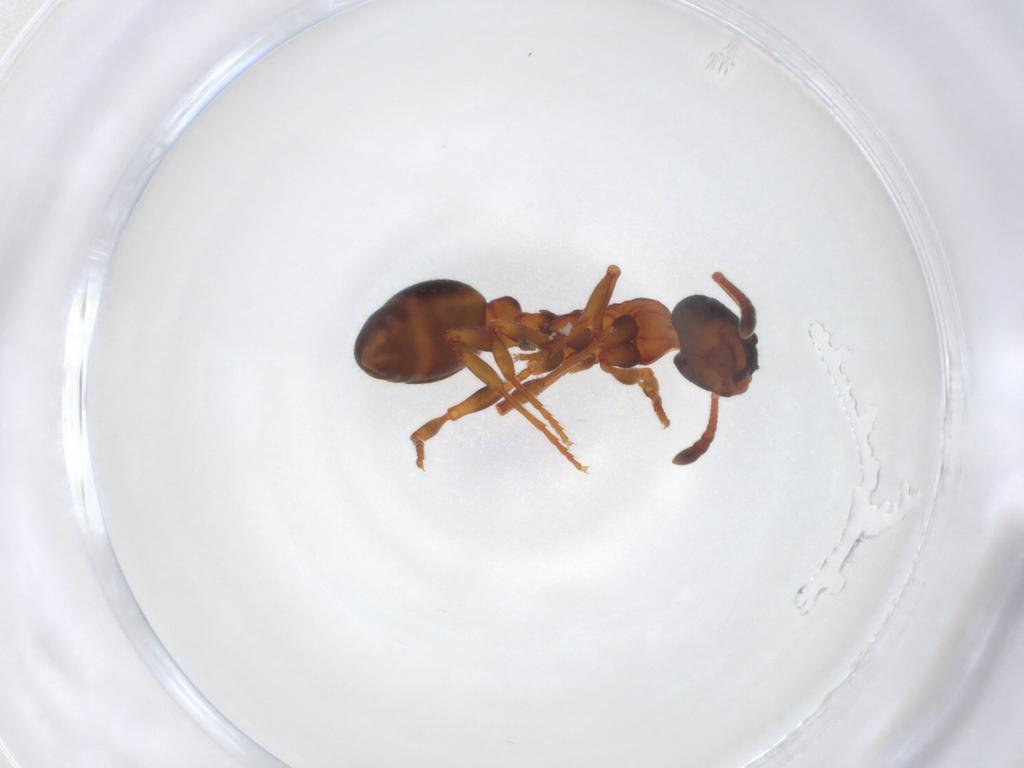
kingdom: Animalia
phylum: Arthropoda
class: Insecta
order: Hymenoptera
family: Formicidae
